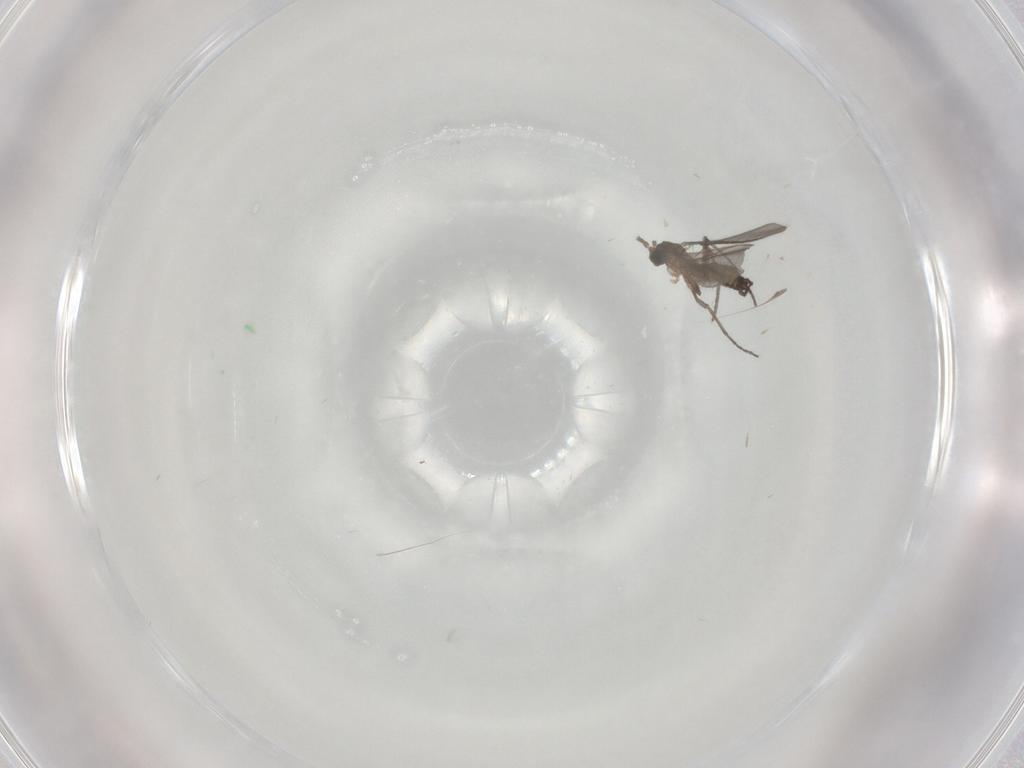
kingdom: Animalia
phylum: Arthropoda
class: Insecta
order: Diptera
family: Sciaridae
